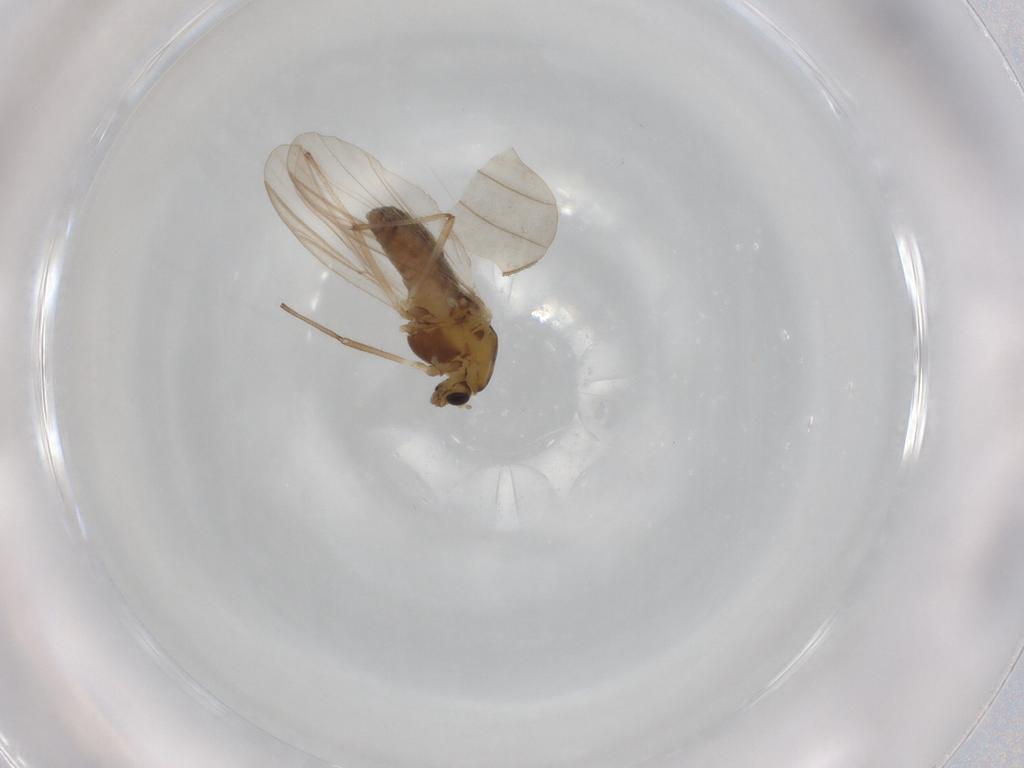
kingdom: Animalia
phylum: Arthropoda
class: Insecta
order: Diptera
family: Chironomidae
